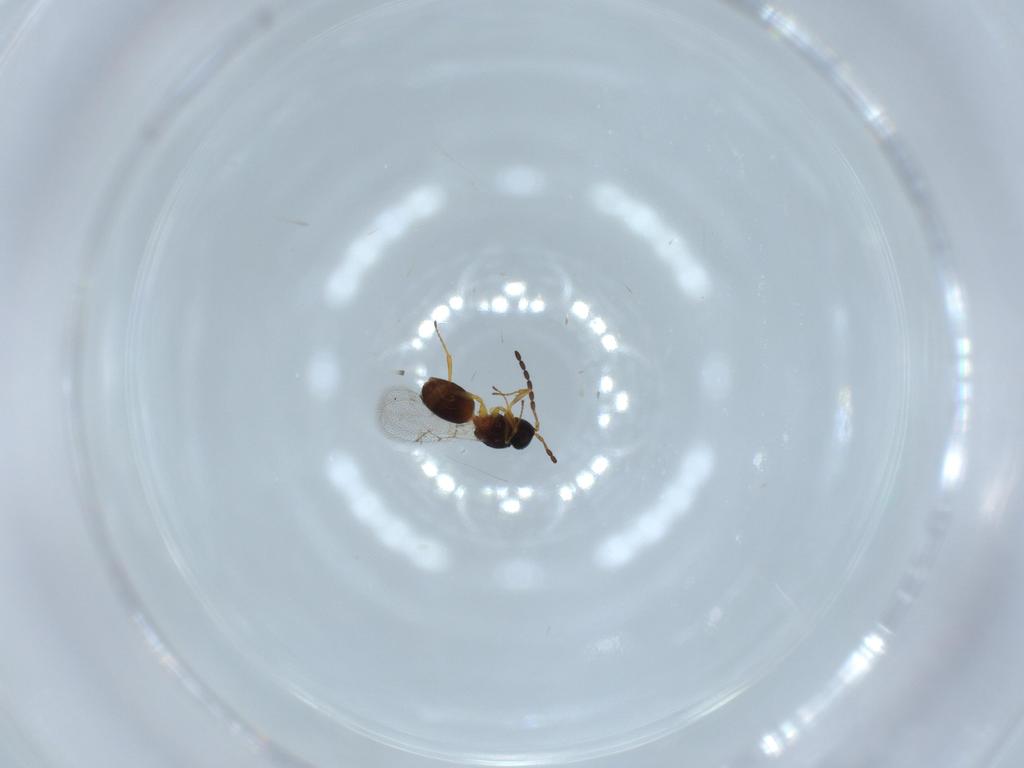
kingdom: Animalia
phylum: Arthropoda
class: Insecta
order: Hymenoptera
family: Figitidae
